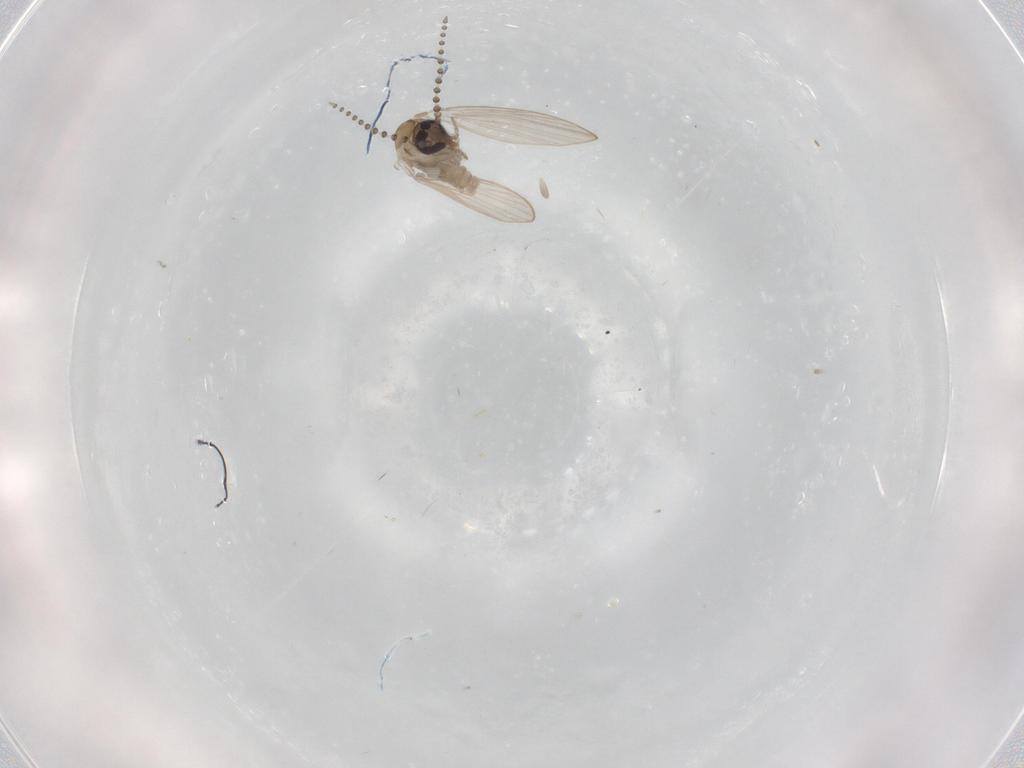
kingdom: Animalia
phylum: Arthropoda
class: Insecta
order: Diptera
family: Psychodidae
